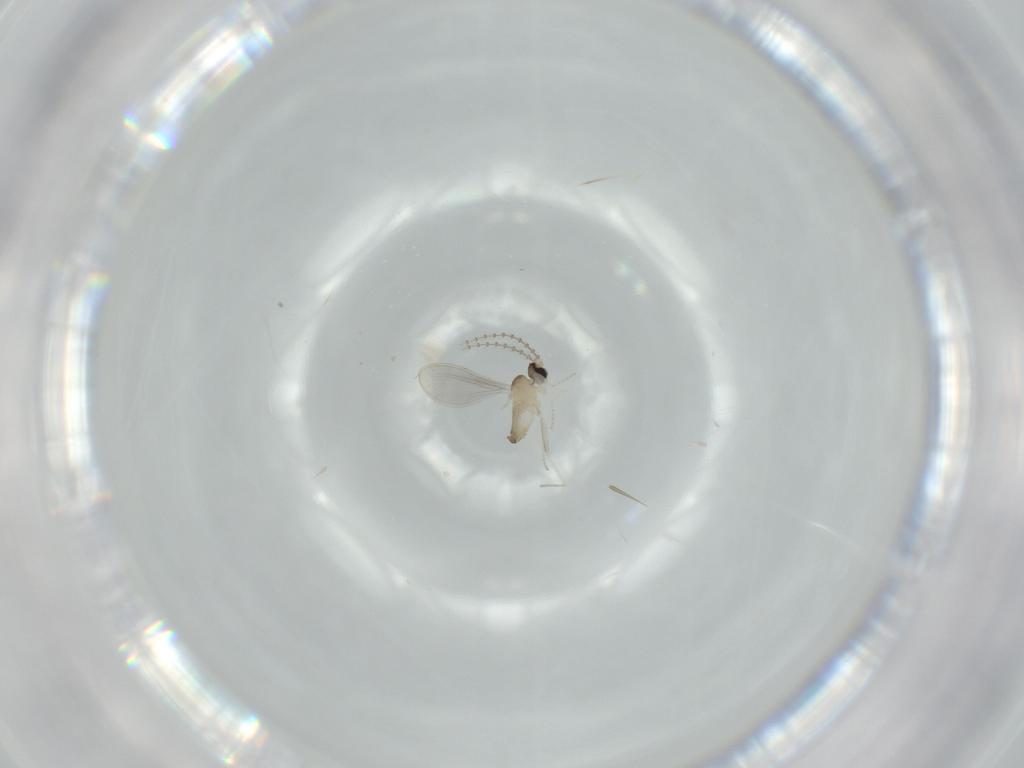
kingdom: Animalia
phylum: Arthropoda
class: Insecta
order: Diptera
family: Cecidomyiidae
